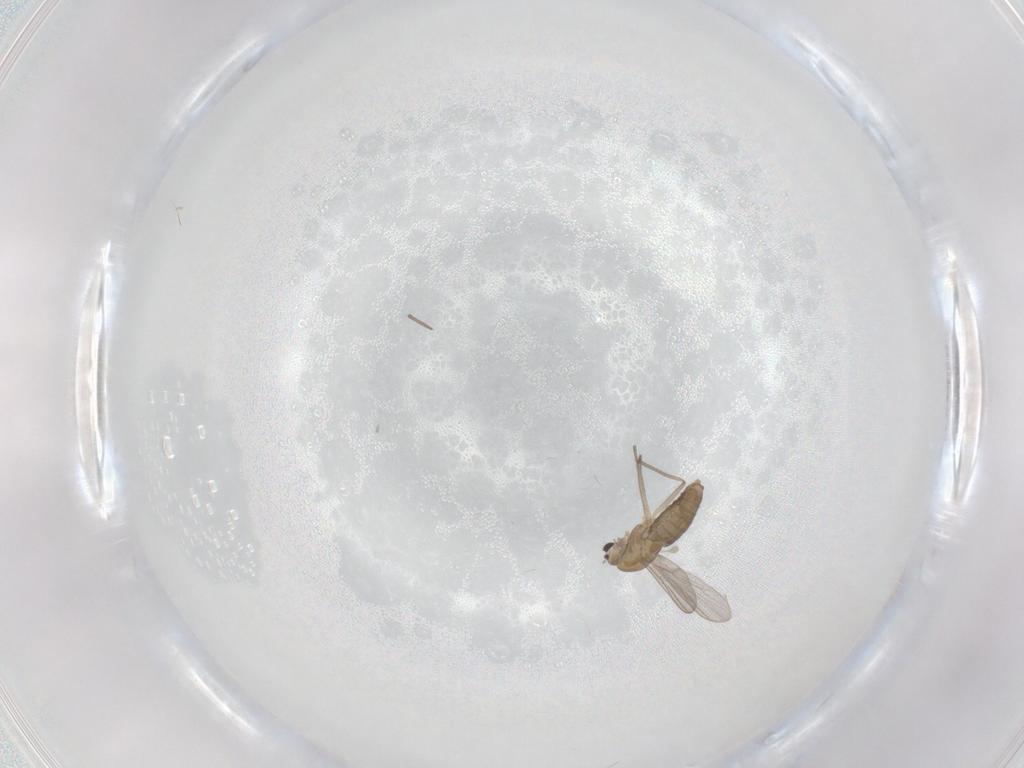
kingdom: Animalia
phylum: Arthropoda
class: Insecta
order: Diptera
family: Chironomidae
